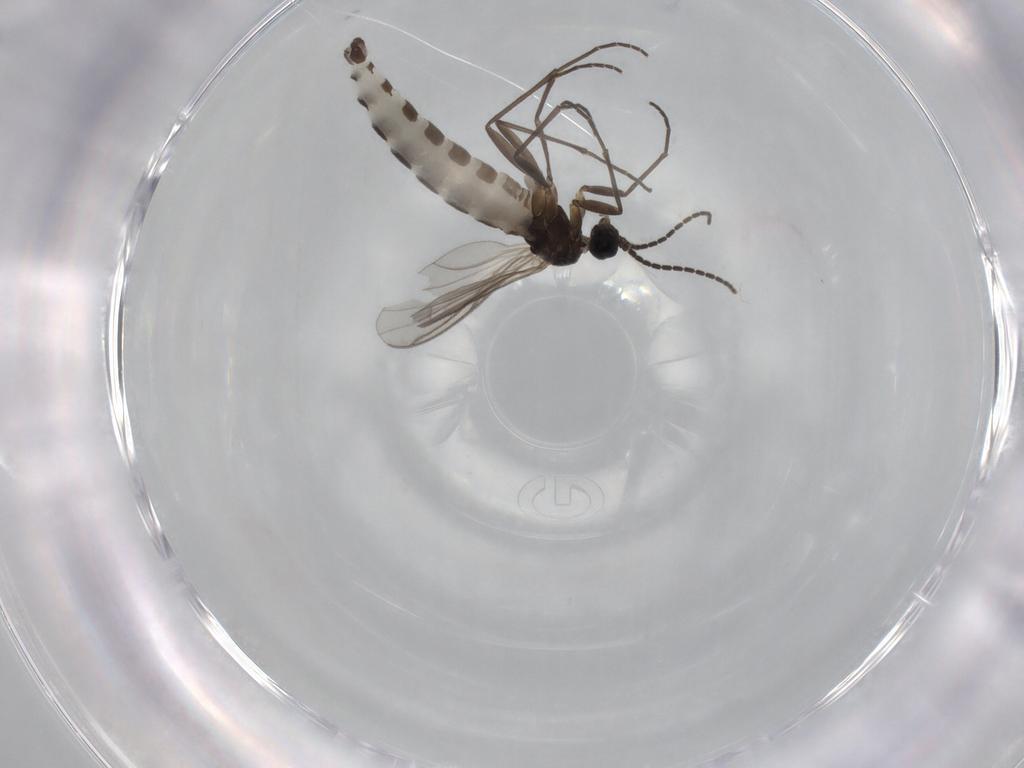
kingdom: Animalia
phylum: Arthropoda
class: Insecta
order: Diptera
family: Sciaridae
